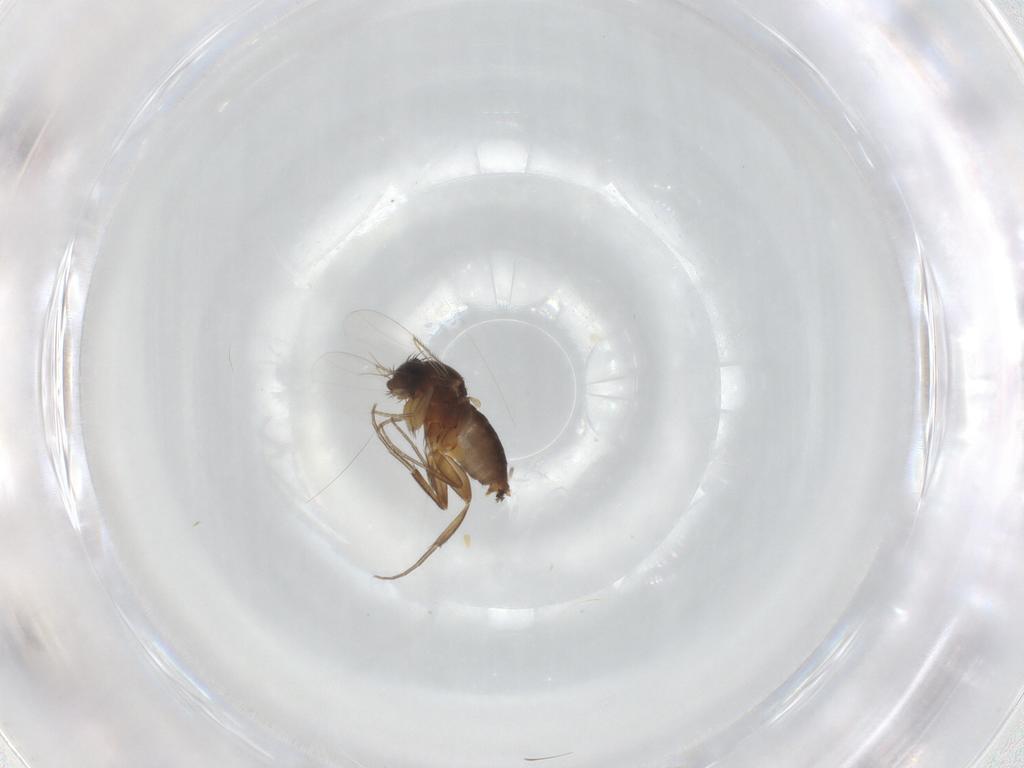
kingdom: Animalia
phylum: Arthropoda
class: Insecta
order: Diptera
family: Phoridae
